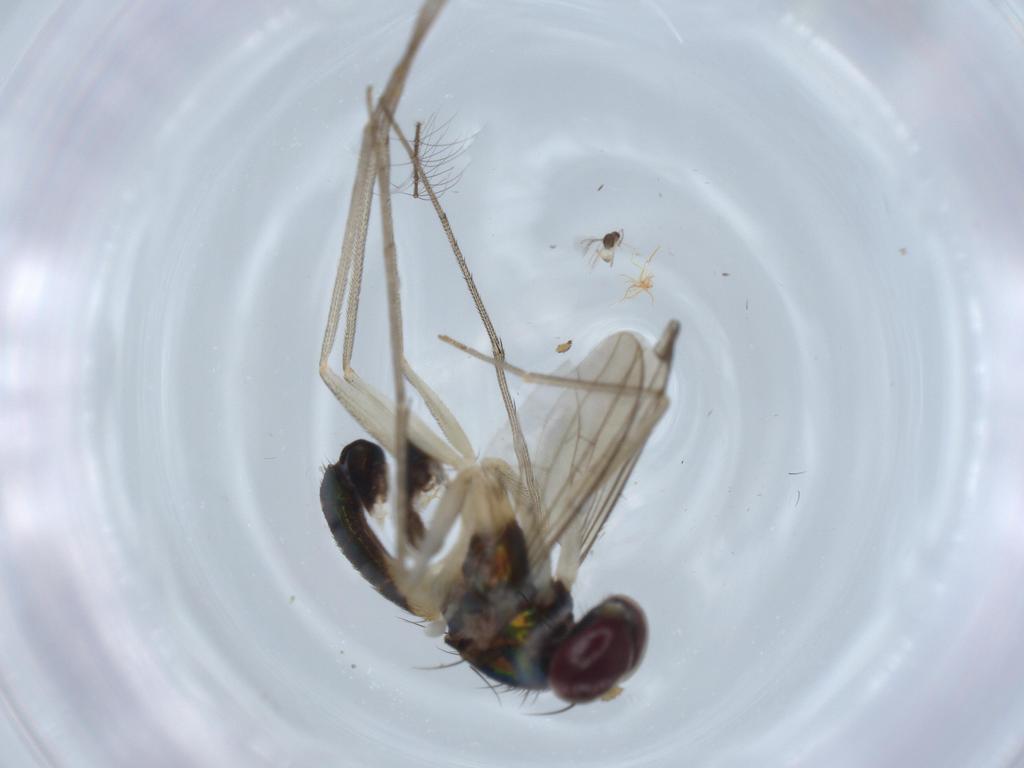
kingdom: Animalia
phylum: Arthropoda
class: Insecta
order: Diptera
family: Dolichopodidae
